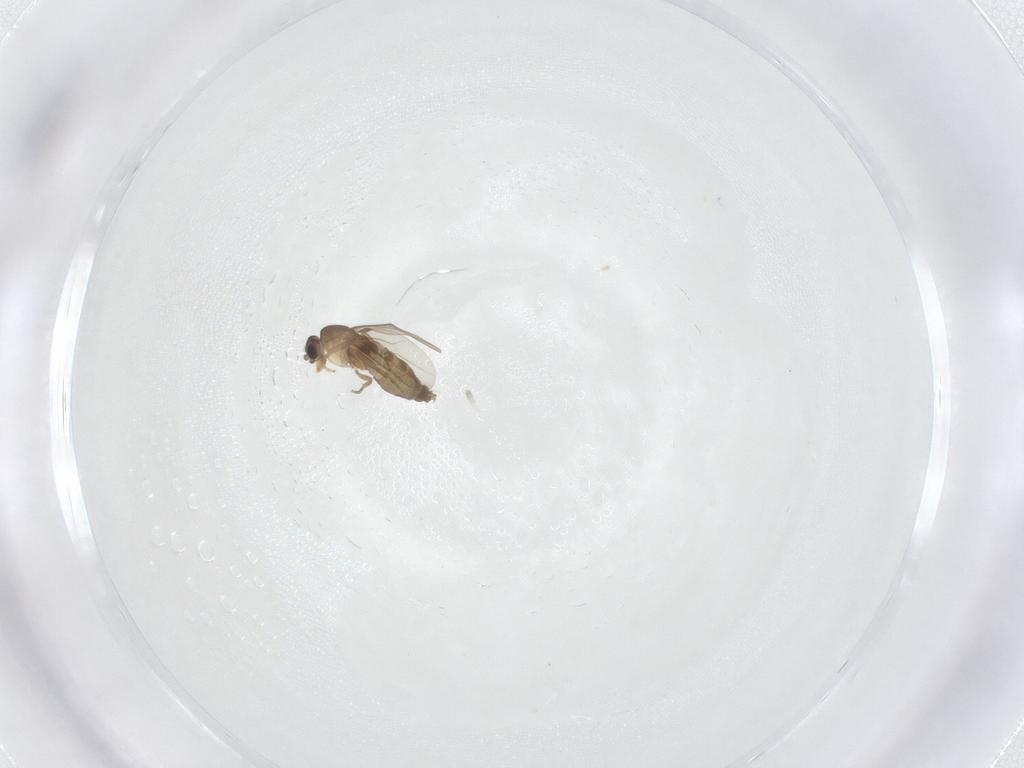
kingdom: Animalia
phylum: Arthropoda
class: Insecta
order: Diptera
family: Phoridae
